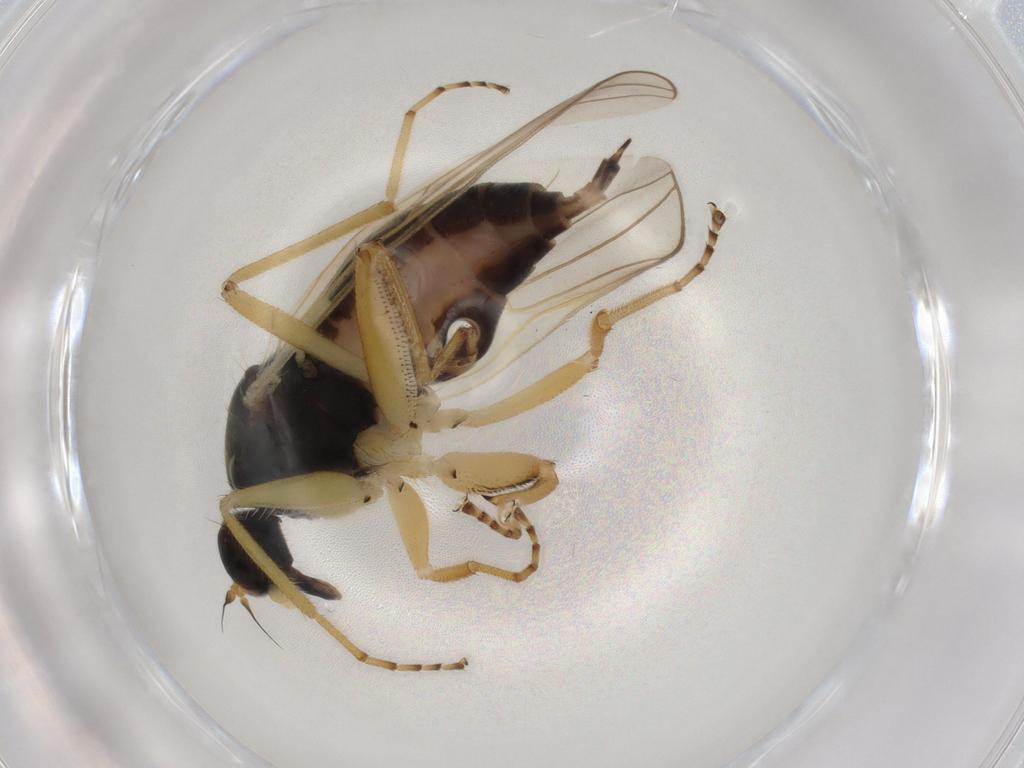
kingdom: Animalia
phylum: Arthropoda
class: Insecta
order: Diptera
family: Hybotidae
